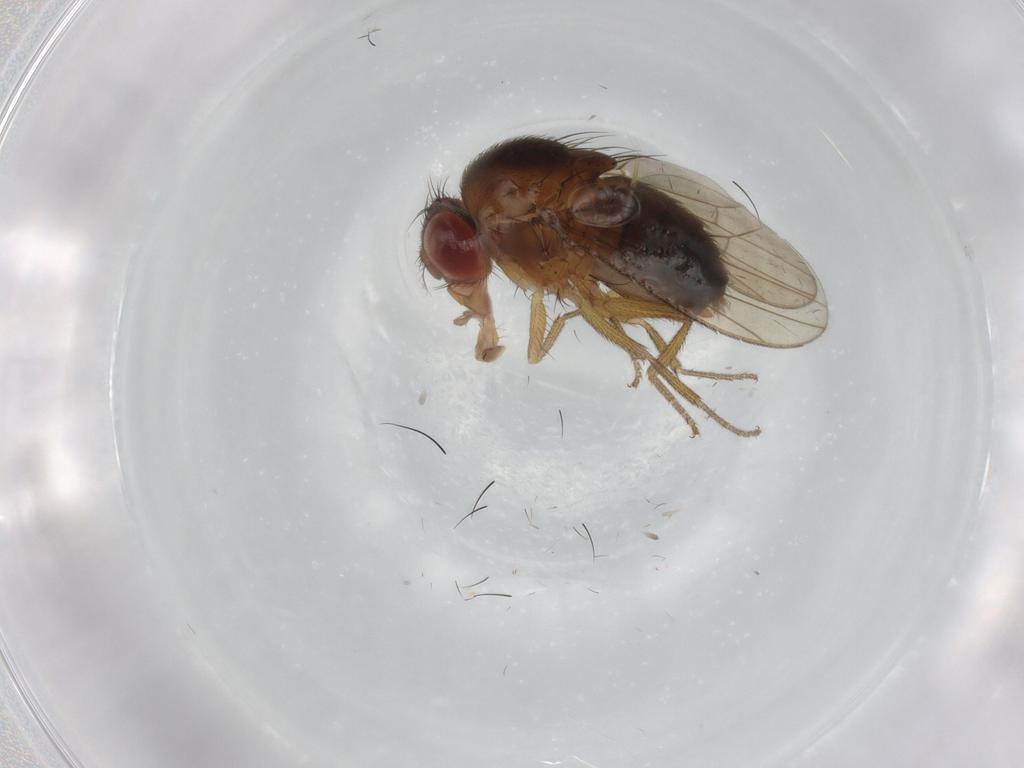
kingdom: Animalia
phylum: Arthropoda
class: Insecta
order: Diptera
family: Drosophilidae
